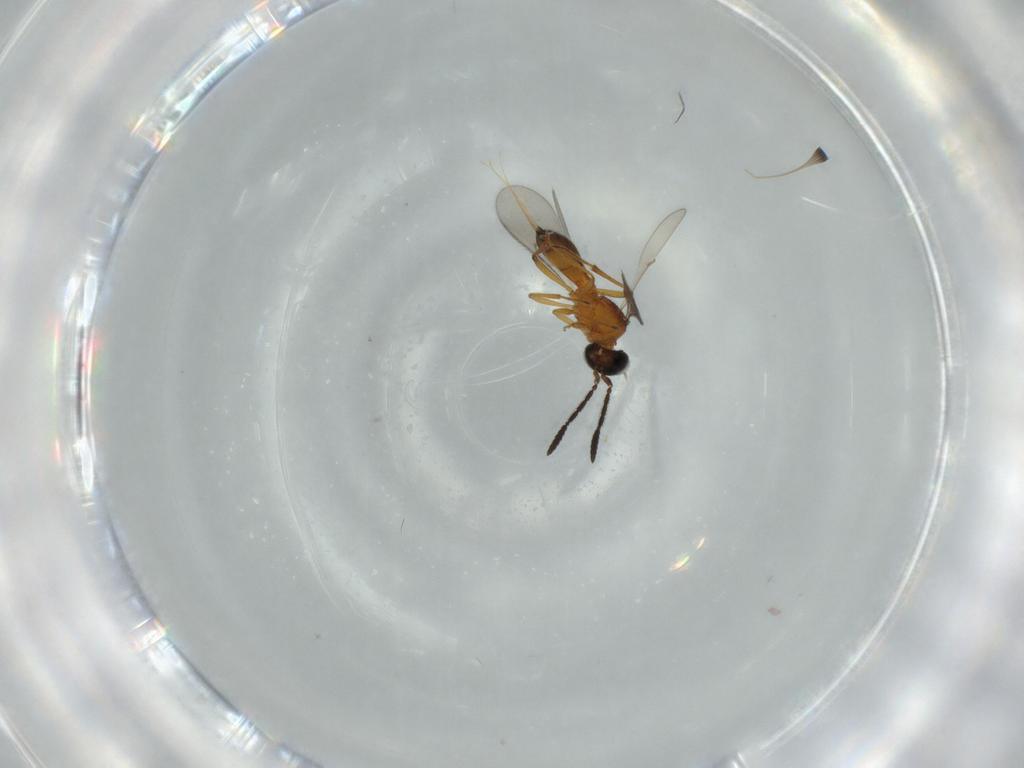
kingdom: Animalia
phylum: Arthropoda
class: Insecta
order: Hymenoptera
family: Scelionidae
